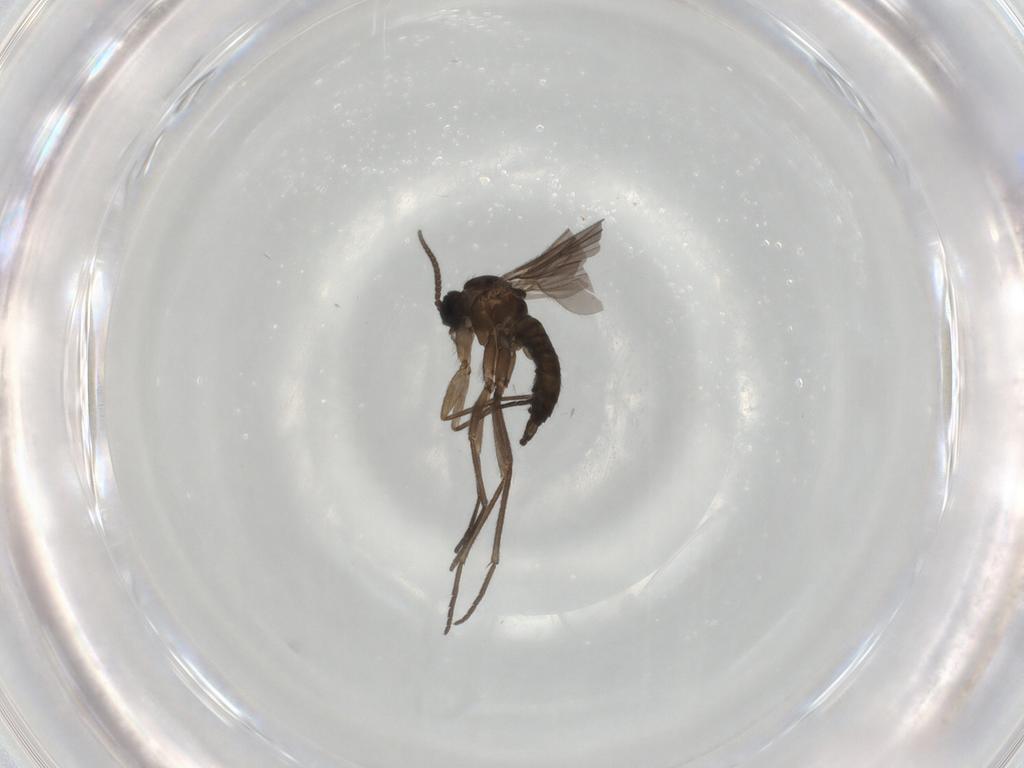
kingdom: Animalia
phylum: Arthropoda
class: Insecta
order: Diptera
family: Sciaridae
